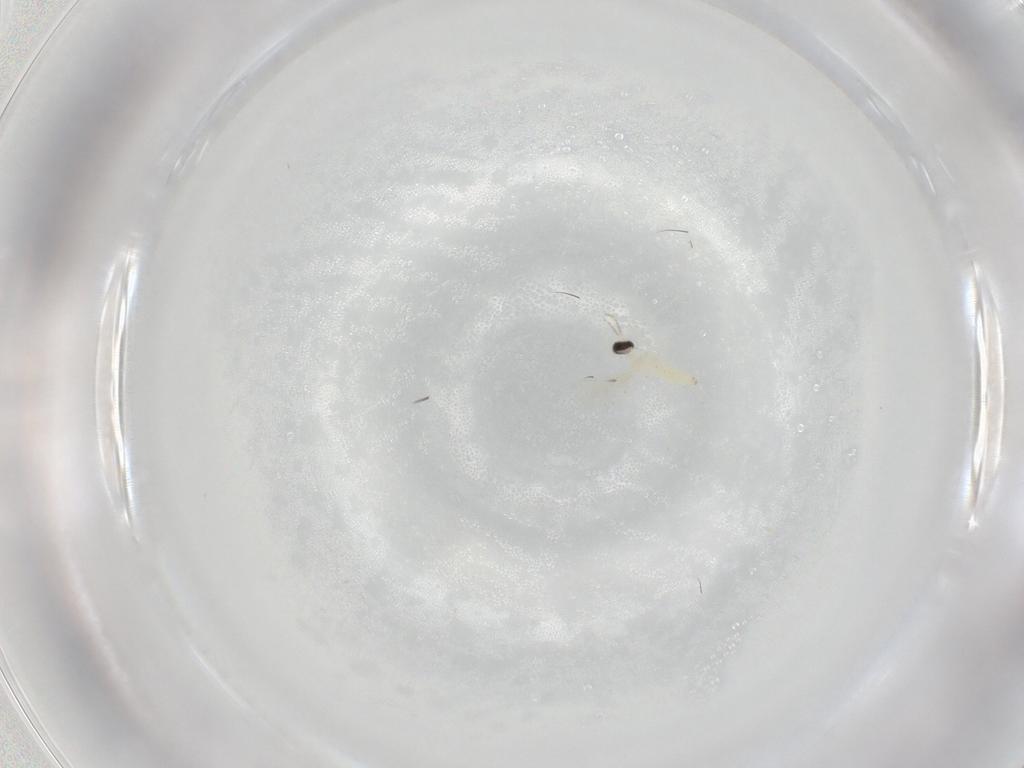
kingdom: Animalia
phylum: Arthropoda
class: Insecta
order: Diptera
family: Cecidomyiidae
